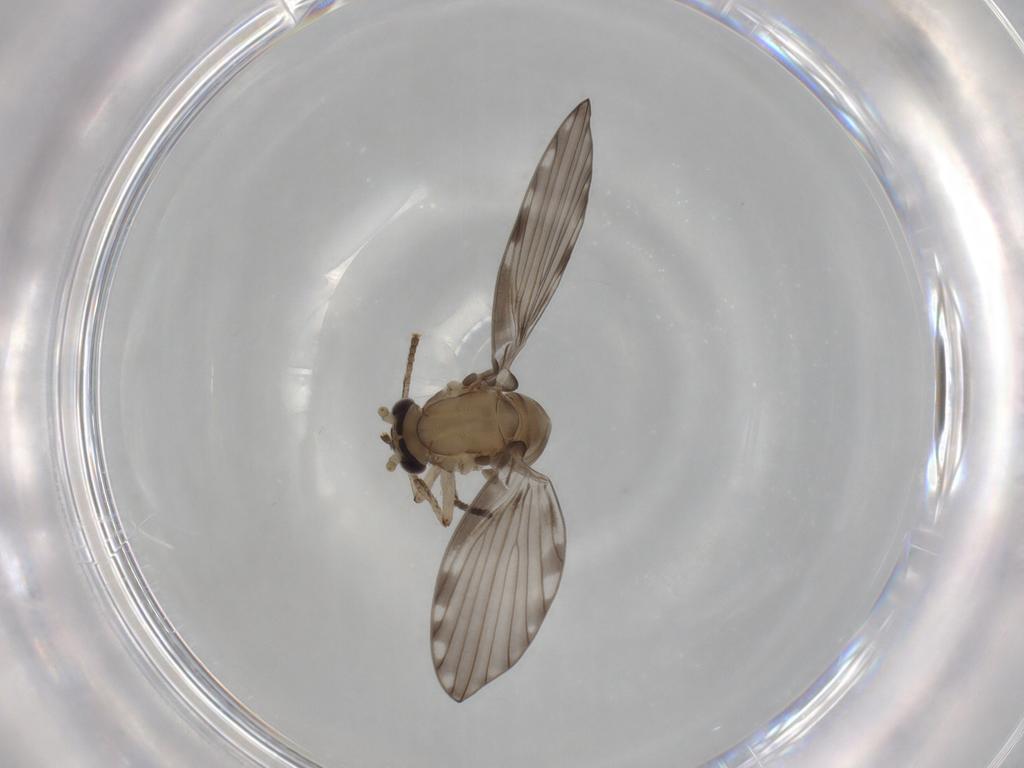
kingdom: Animalia
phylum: Arthropoda
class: Insecta
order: Diptera
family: Psychodidae
